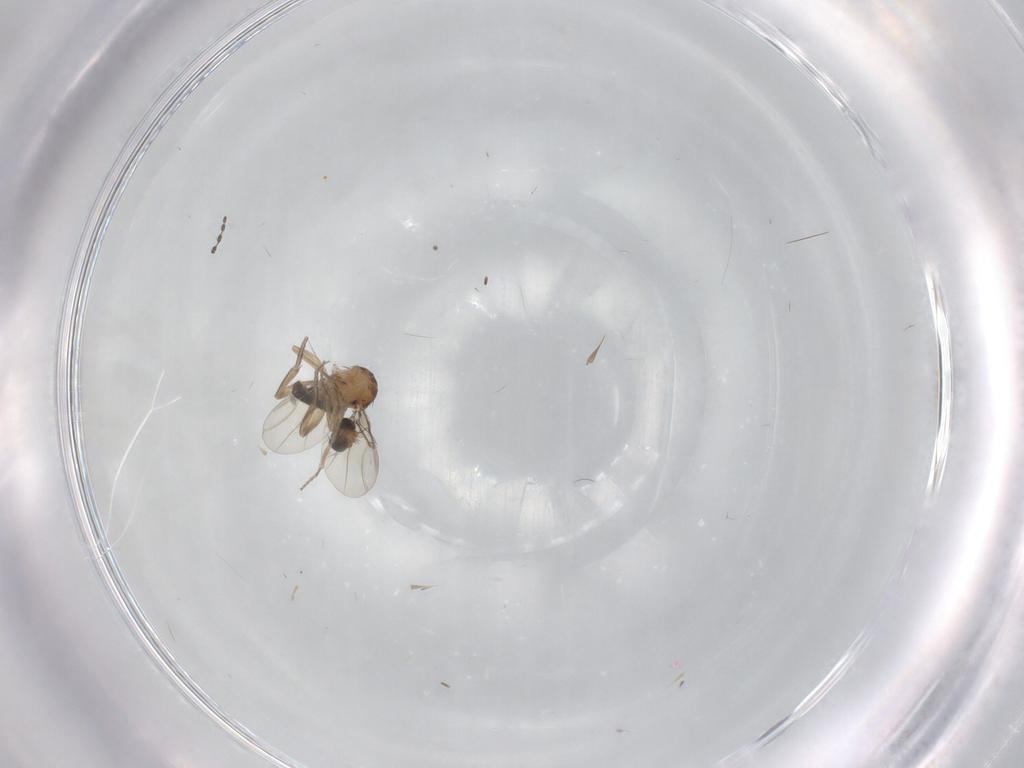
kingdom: Animalia
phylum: Arthropoda
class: Insecta
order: Diptera
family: Phoridae
